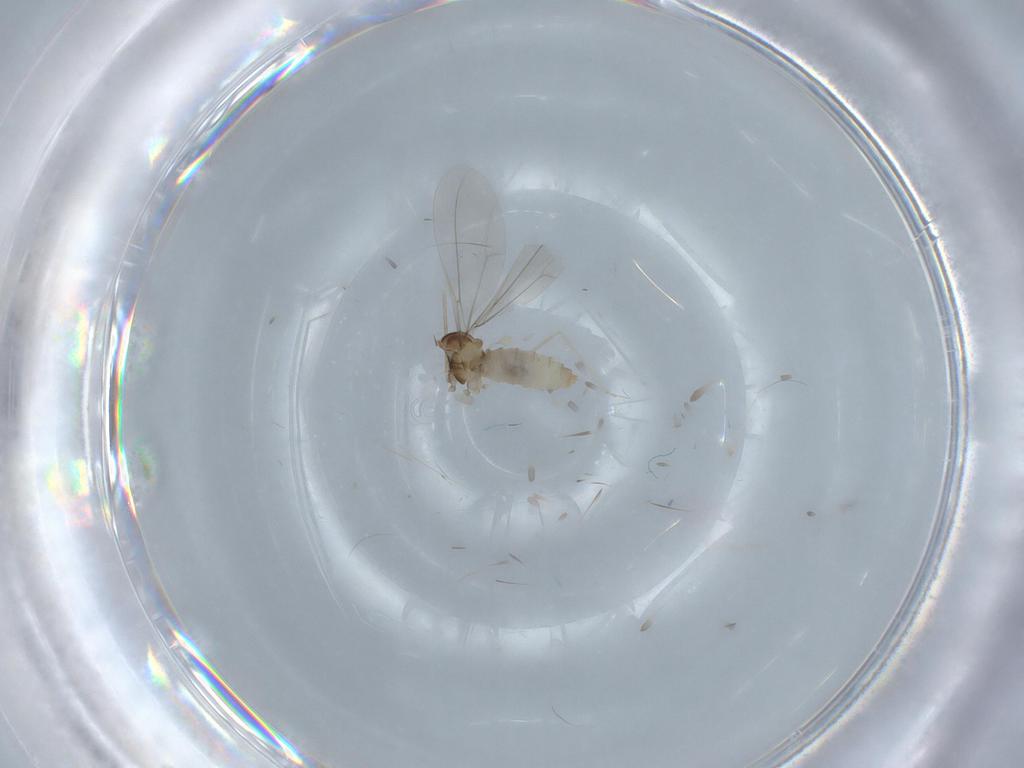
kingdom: Animalia
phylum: Arthropoda
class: Insecta
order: Diptera
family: Cecidomyiidae
